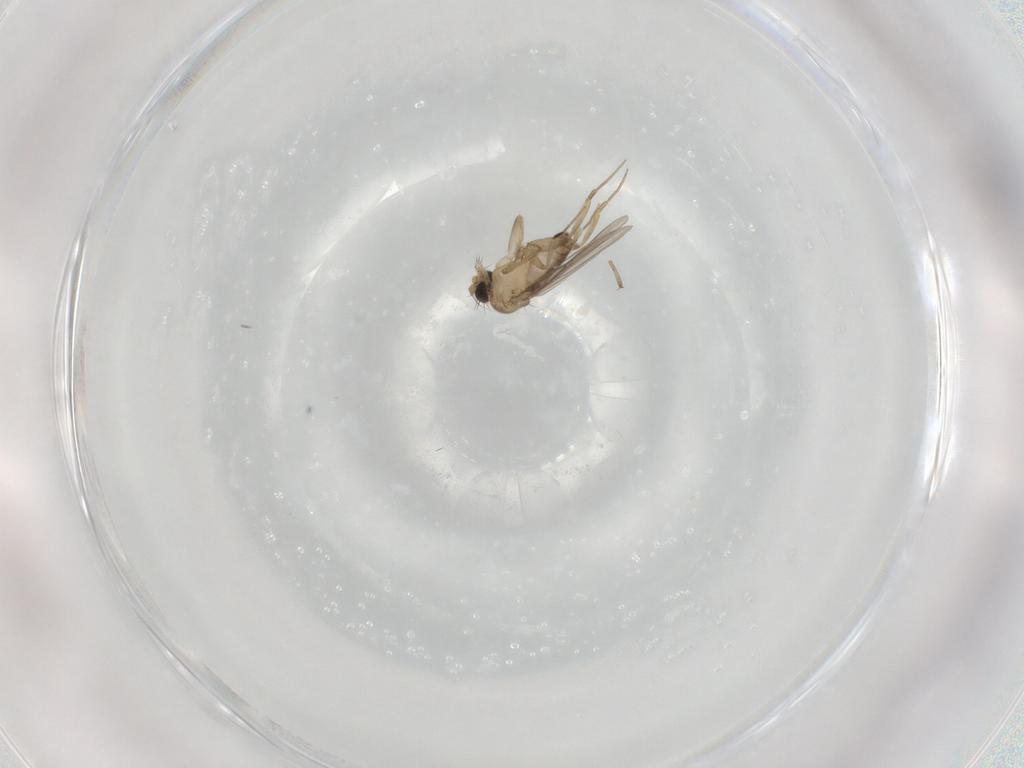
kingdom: Animalia
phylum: Arthropoda
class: Insecta
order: Diptera
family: Phoridae
